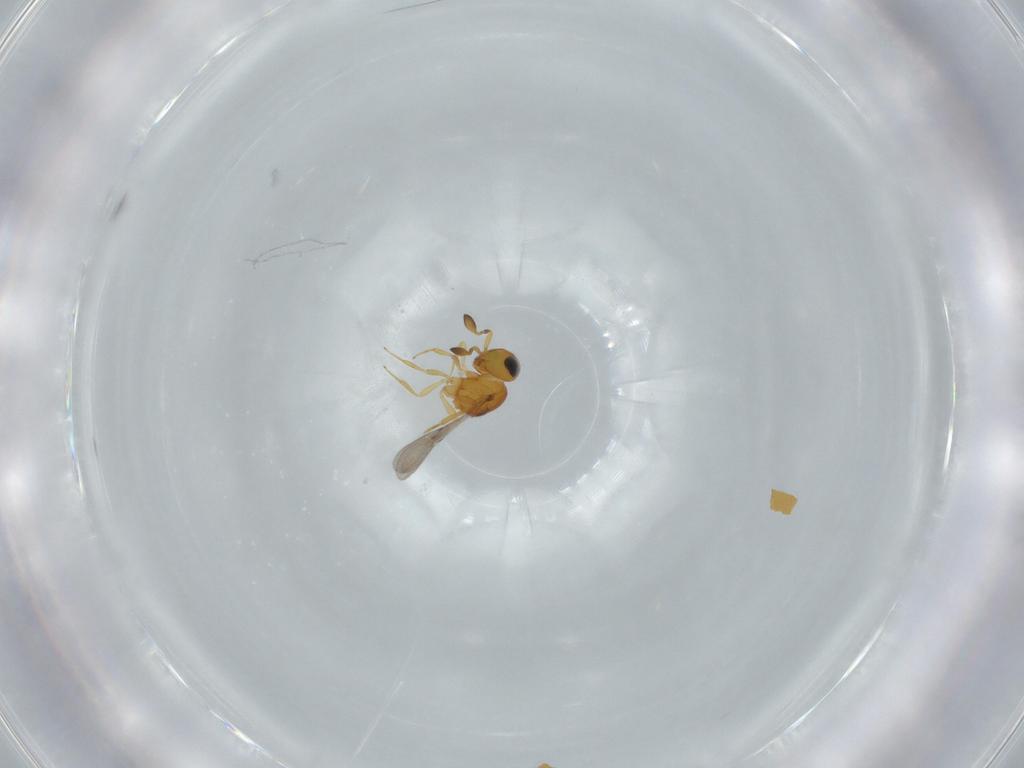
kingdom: Animalia
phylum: Arthropoda
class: Insecta
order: Hymenoptera
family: Scelionidae
